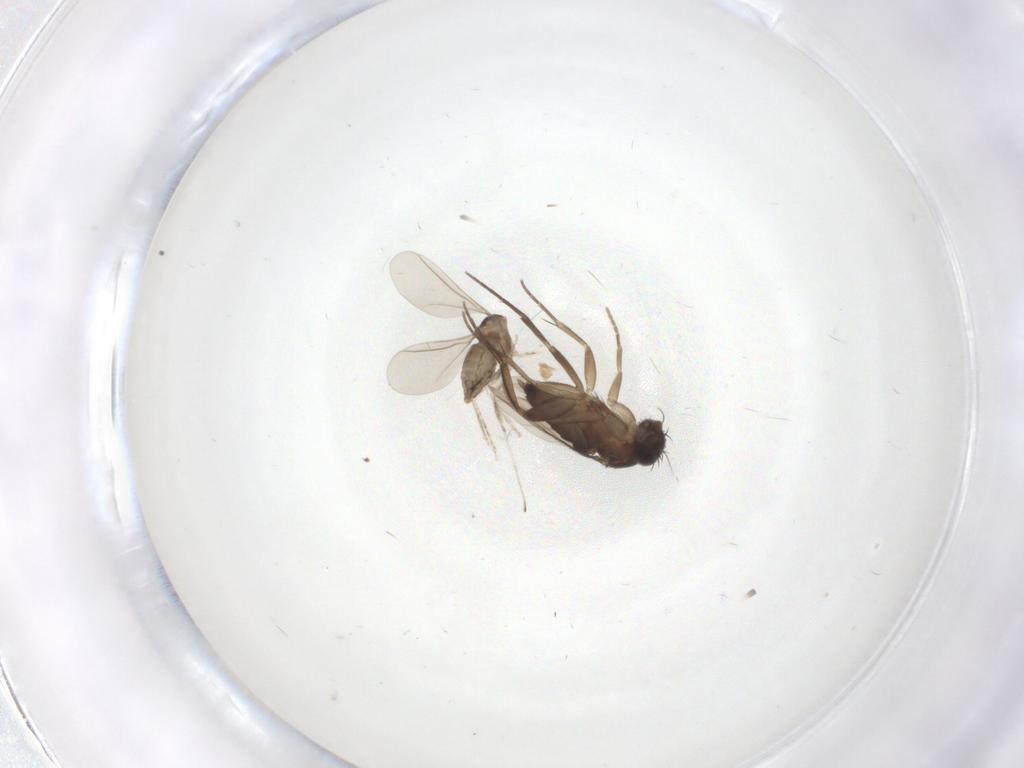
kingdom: Animalia
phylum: Arthropoda
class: Insecta
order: Diptera
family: Cecidomyiidae
